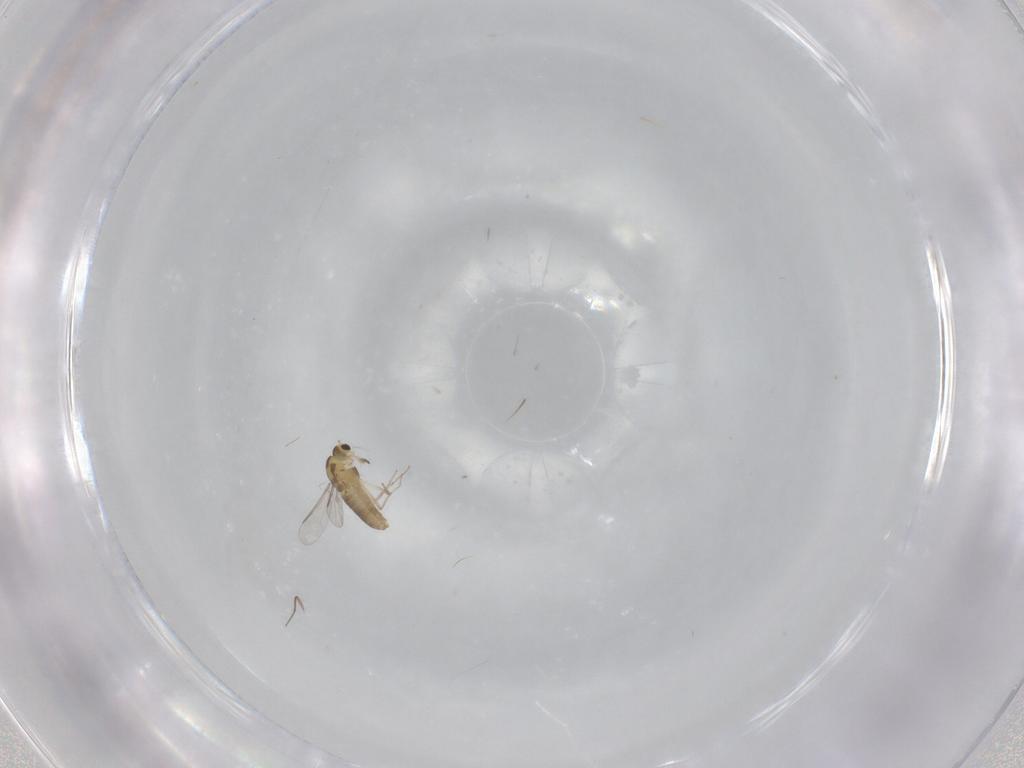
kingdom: Animalia
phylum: Arthropoda
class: Insecta
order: Diptera
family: Chironomidae
